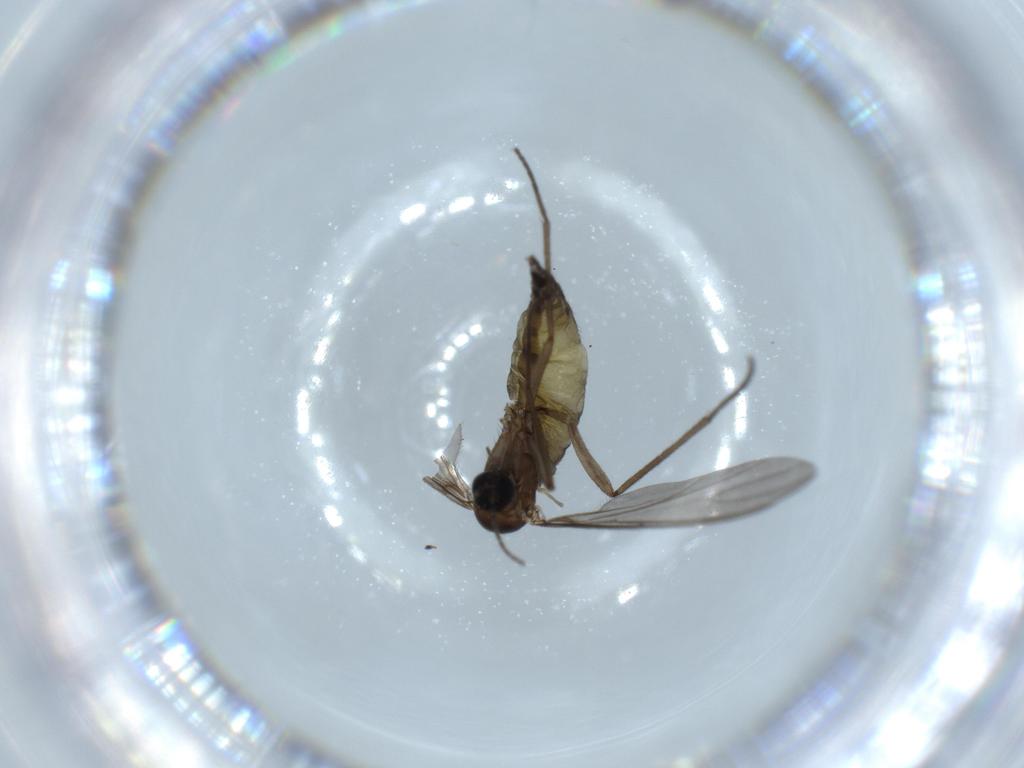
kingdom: Animalia
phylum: Arthropoda
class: Insecta
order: Diptera
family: Sciaridae
